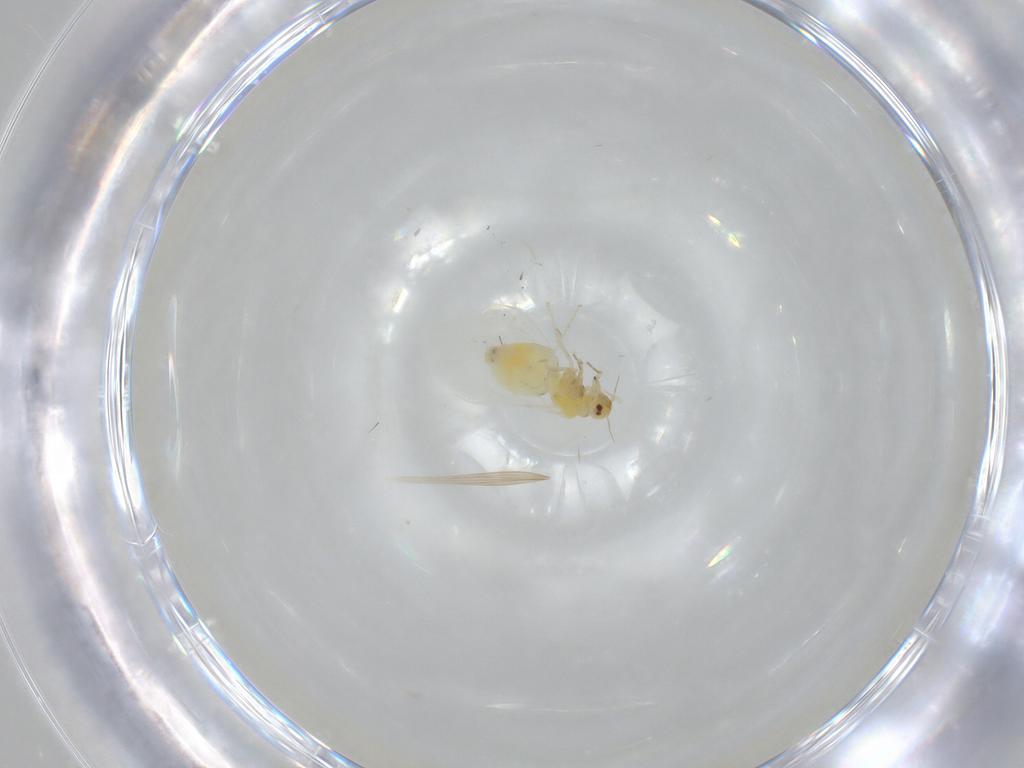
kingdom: Animalia
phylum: Arthropoda
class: Insecta
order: Hemiptera
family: Aleyrodidae
